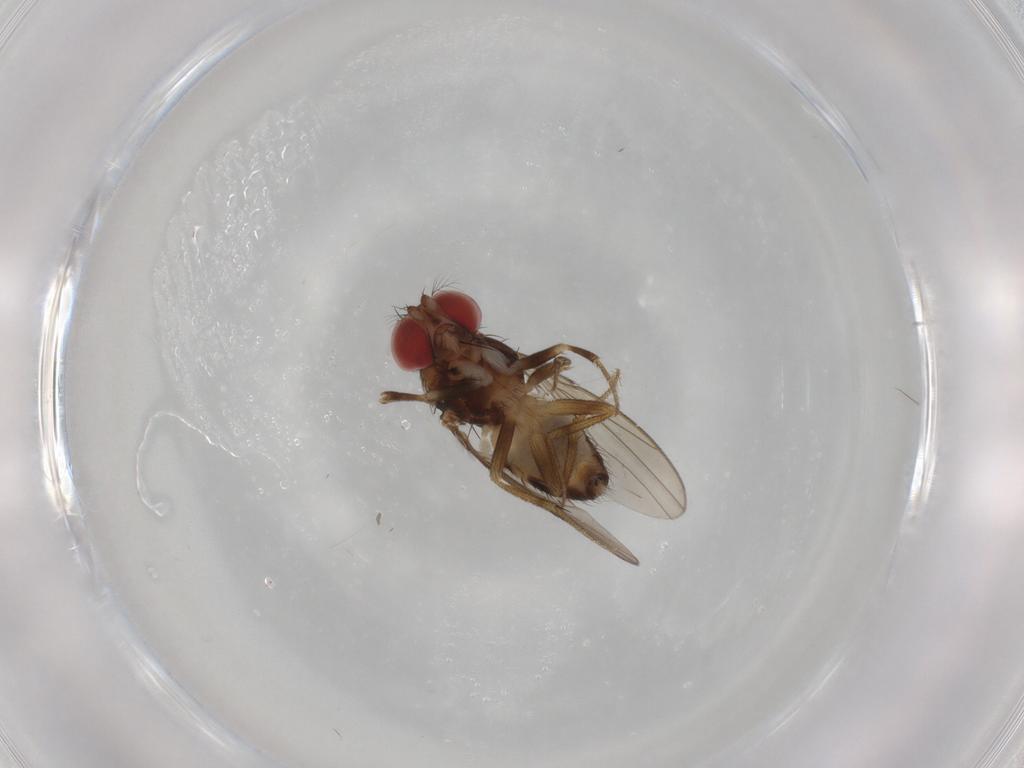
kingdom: Animalia
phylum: Arthropoda
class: Insecta
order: Diptera
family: Drosophilidae
